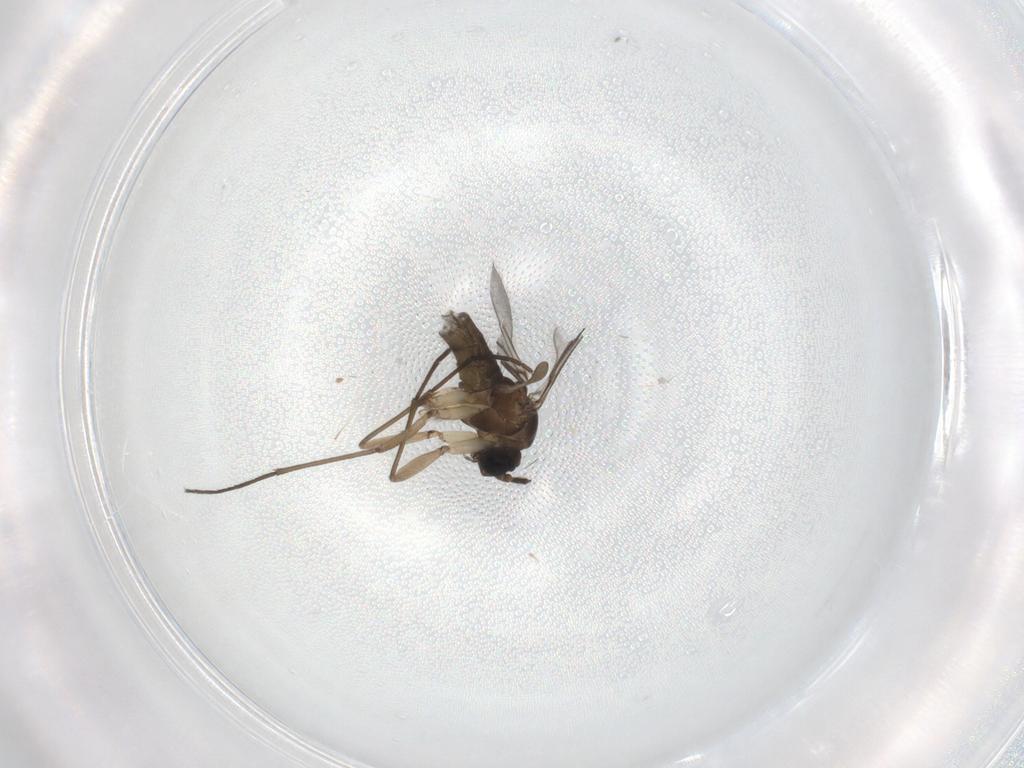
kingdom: Animalia
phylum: Arthropoda
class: Insecta
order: Diptera
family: Sciaridae
